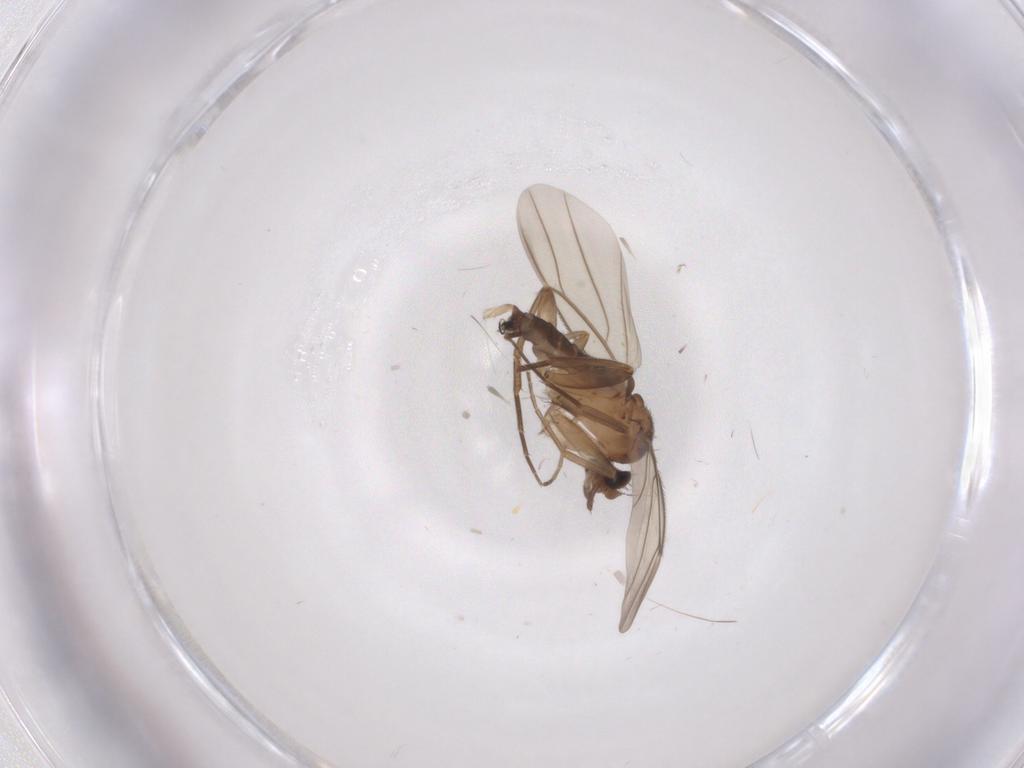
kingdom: Animalia
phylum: Arthropoda
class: Insecta
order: Diptera
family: Phoridae
